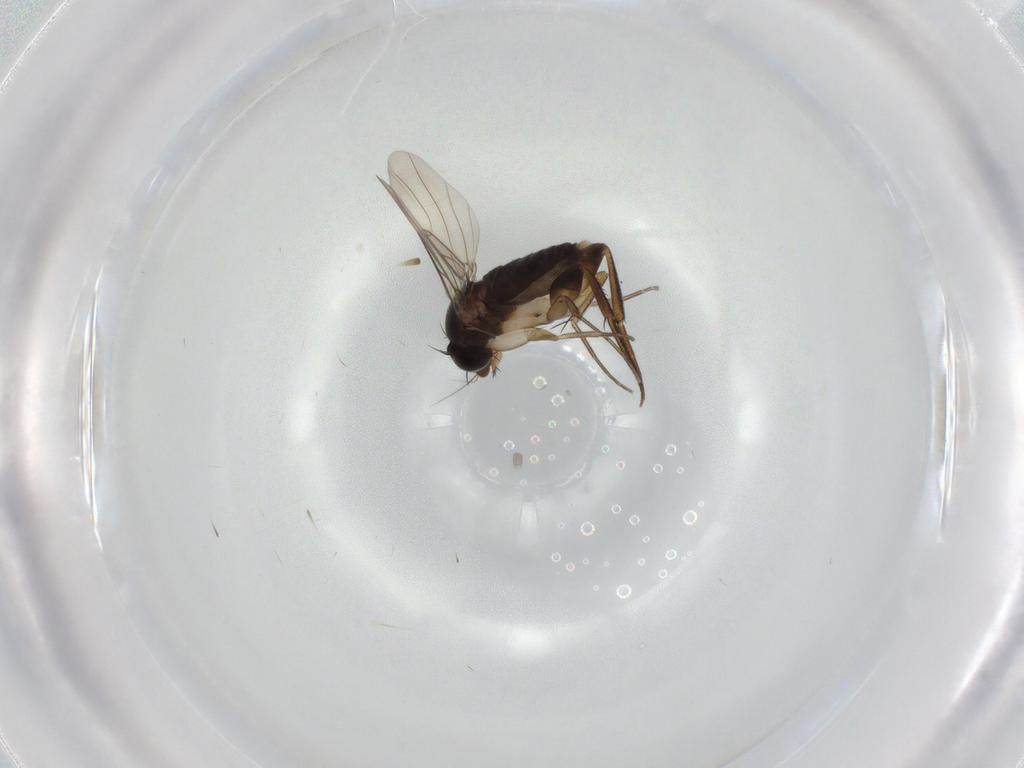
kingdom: Animalia
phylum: Arthropoda
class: Insecta
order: Diptera
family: Phoridae
